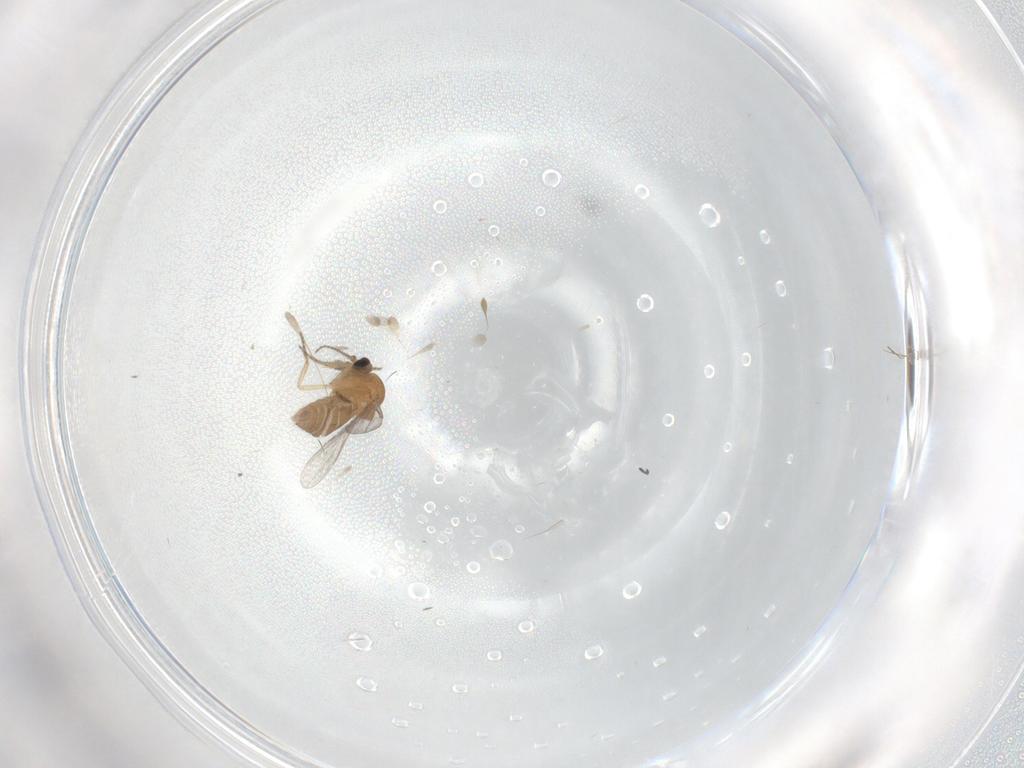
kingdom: Animalia
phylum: Arthropoda
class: Insecta
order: Diptera
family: Ceratopogonidae
